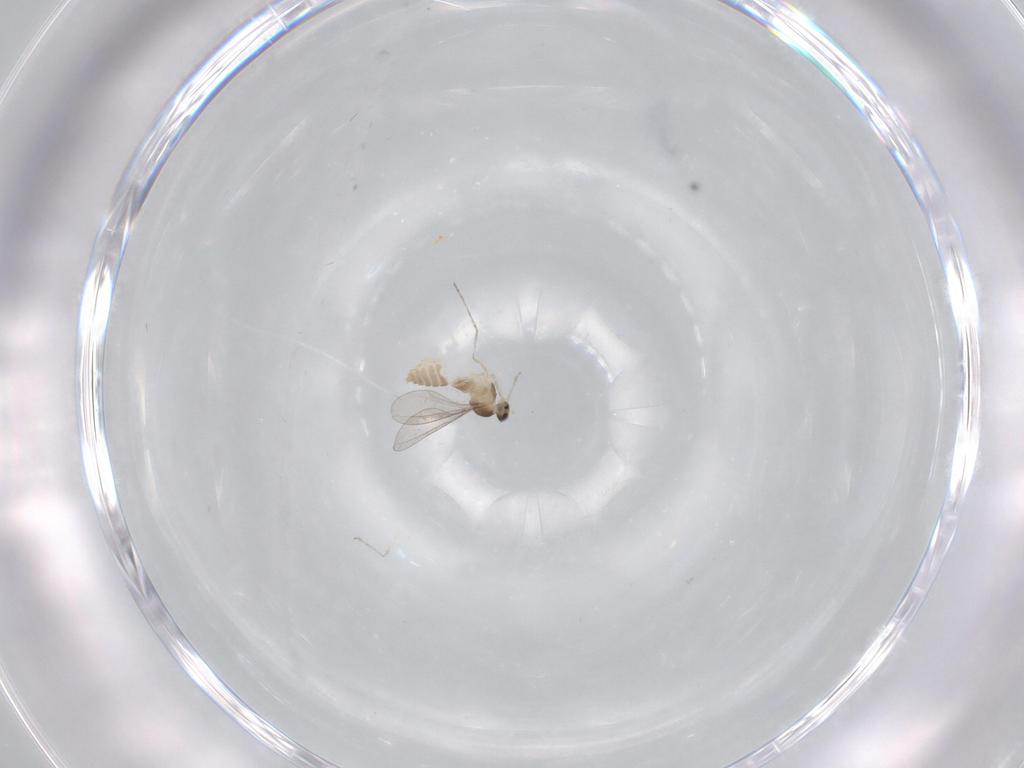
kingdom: Animalia
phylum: Arthropoda
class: Insecta
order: Diptera
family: Cecidomyiidae
